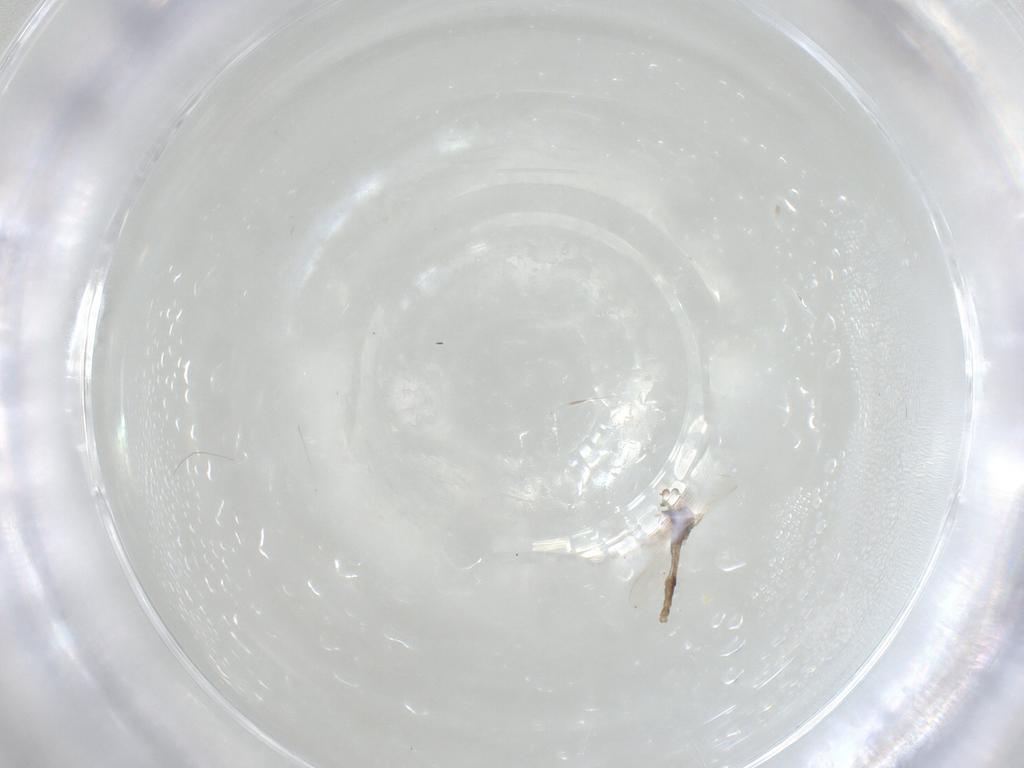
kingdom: Animalia
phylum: Arthropoda
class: Insecta
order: Diptera
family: Chironomidae
